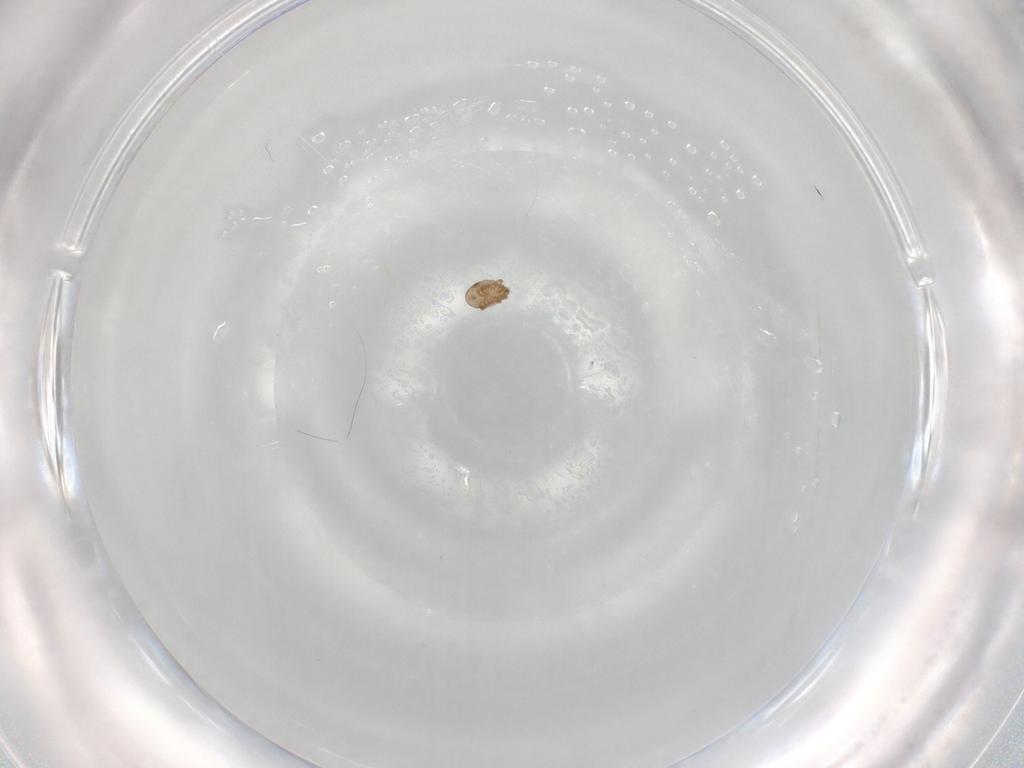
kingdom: Animalia
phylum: Arthropoda
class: Arachnida
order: Sarcoptiformes
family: Ceratozetidae
